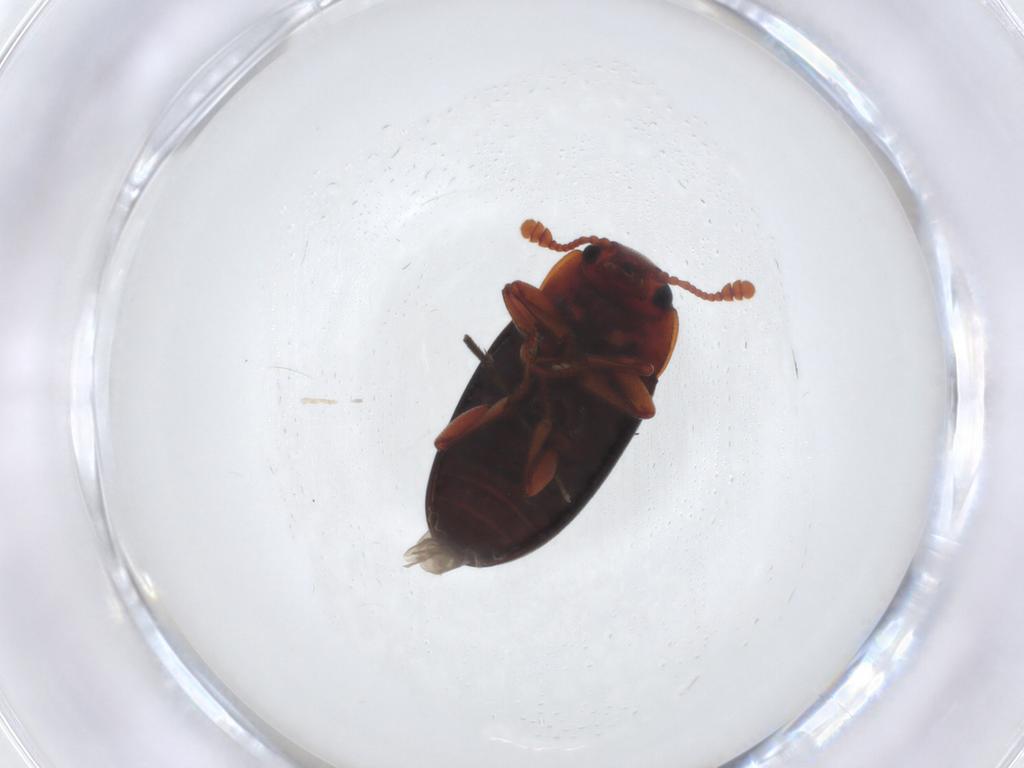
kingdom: Animalia
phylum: Arthropoda
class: Insecta
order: Coleoptera
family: Erotylidae
